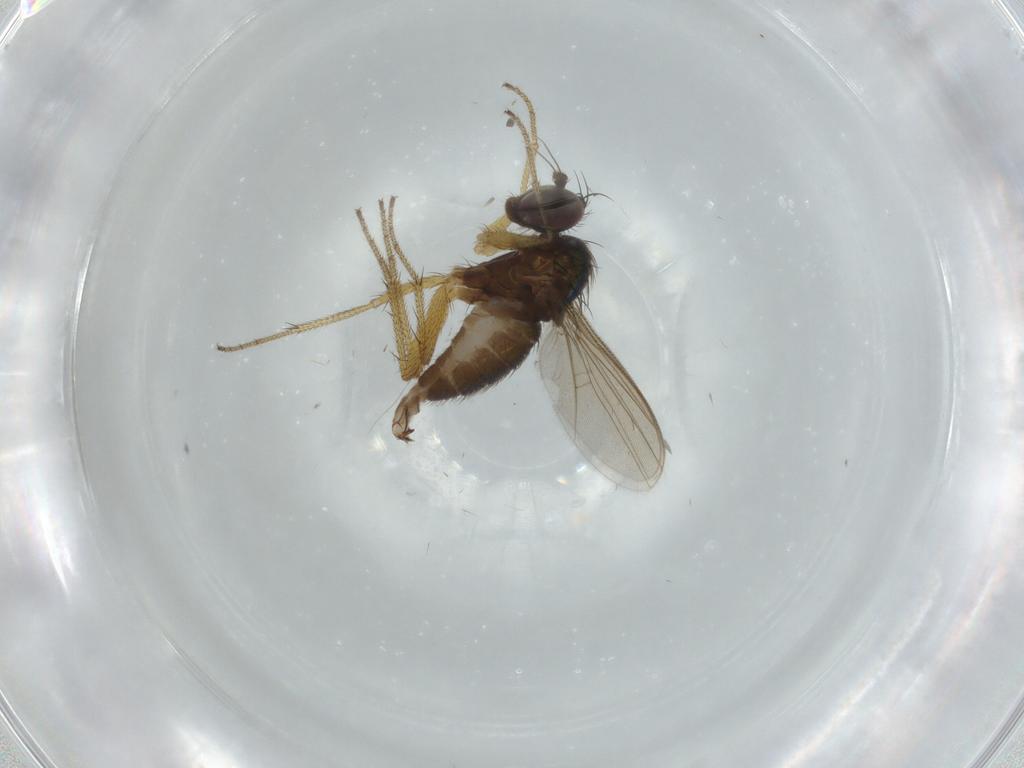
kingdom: Animalia
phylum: Arthropoda
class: Insecta
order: Diptera
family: Dolichopodidae
